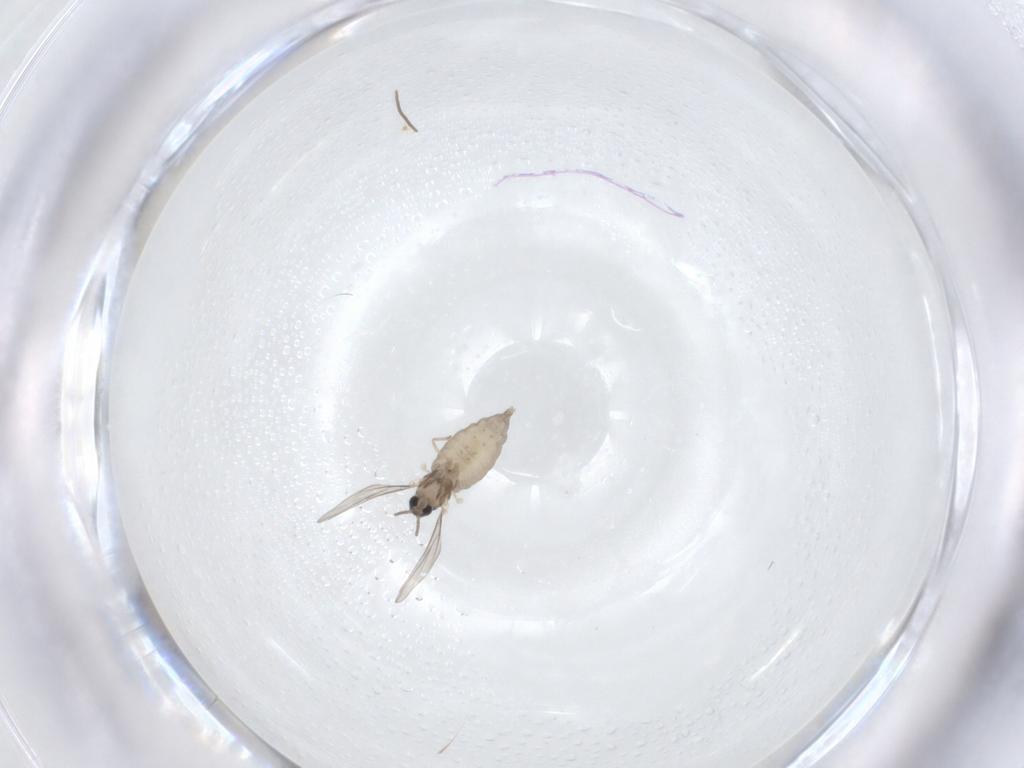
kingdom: Animalia
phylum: Arthropoda
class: Insecta
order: Diptera
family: Cecidomyiidae
